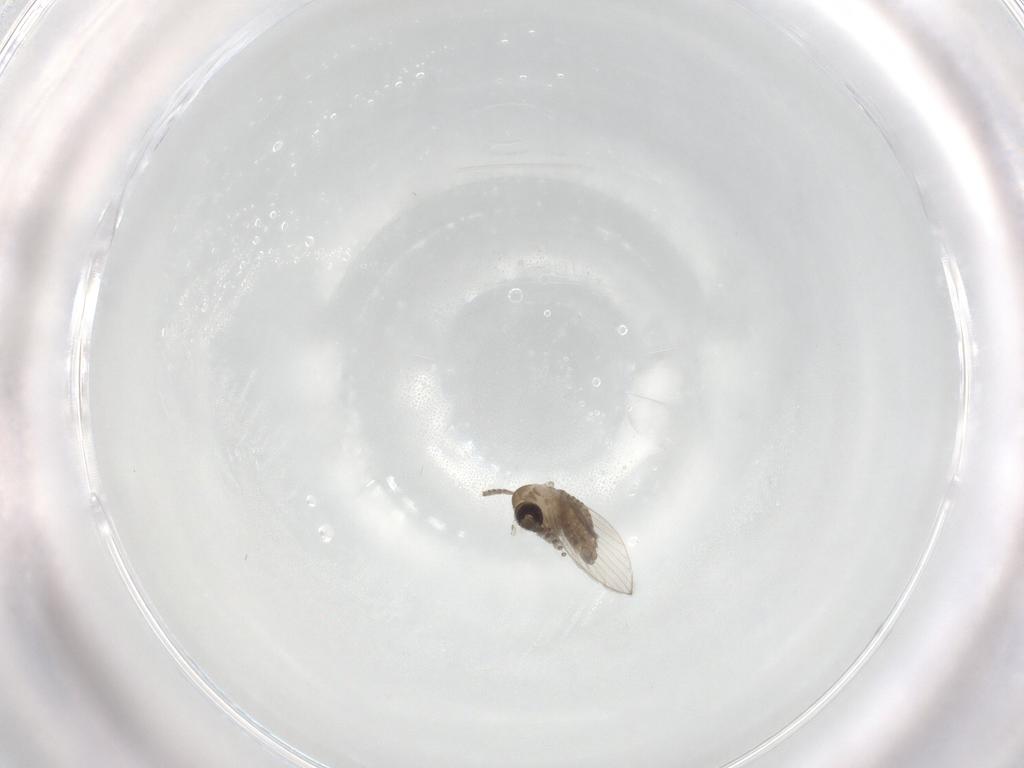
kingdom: Animalia
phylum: Arthropoda
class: Insecta
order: Diptera
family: Psychodidae
